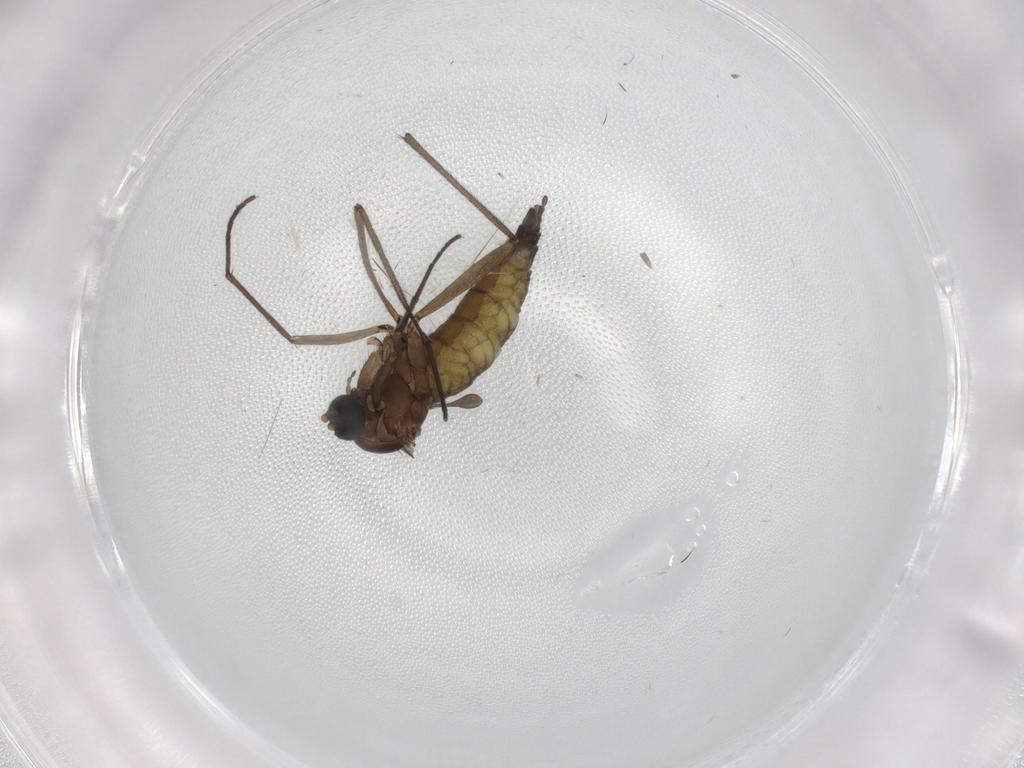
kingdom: Animalia
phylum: Arthropoda
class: Insecta
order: Diptera
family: Sciaridae
